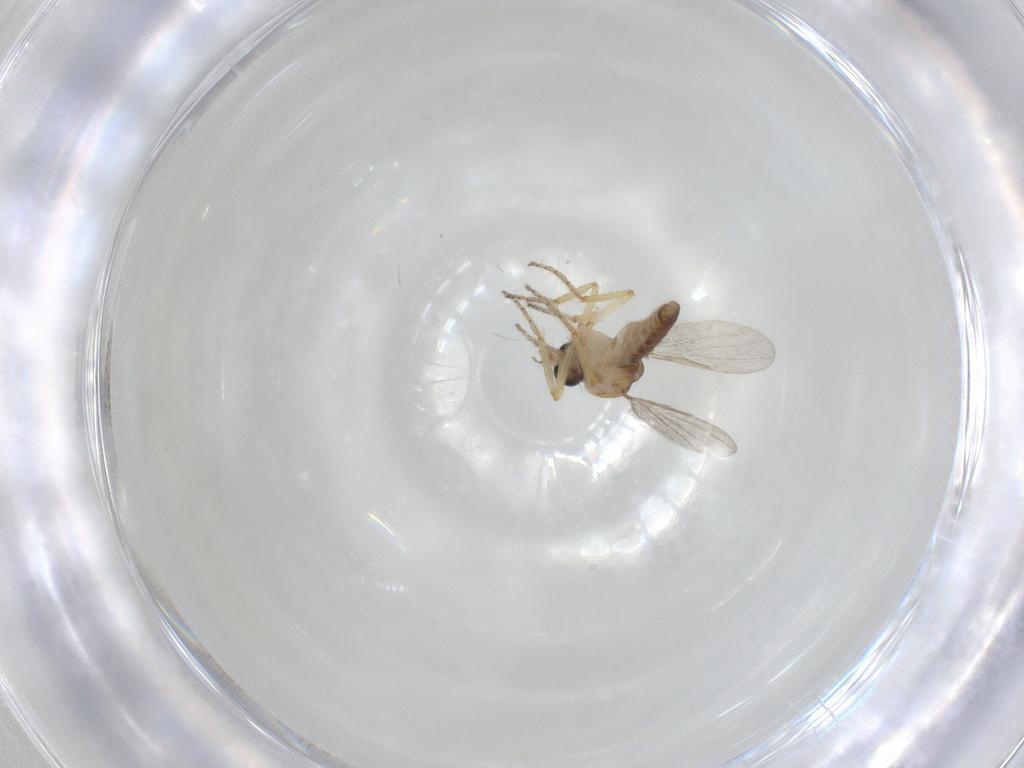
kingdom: Animalia
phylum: Arthropoda
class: Insecta
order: Diptera
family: Ceratopogonidae
